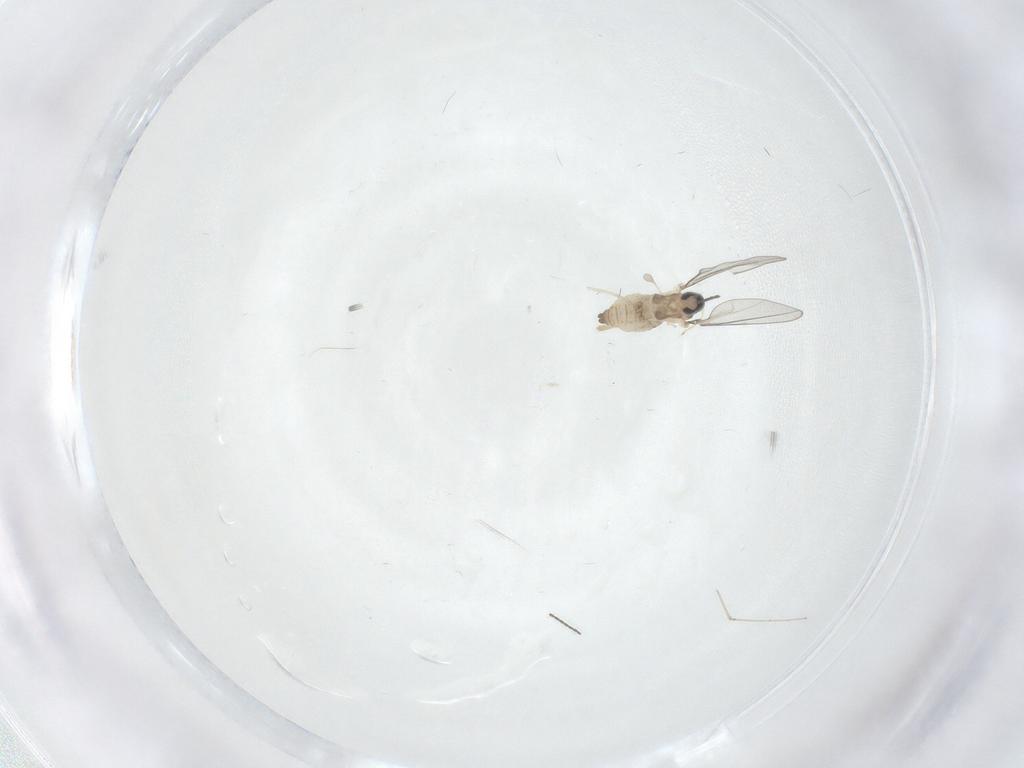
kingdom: Animalia
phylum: Arthropoda
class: Insecta
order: Diptera
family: Cecidomyiidae
